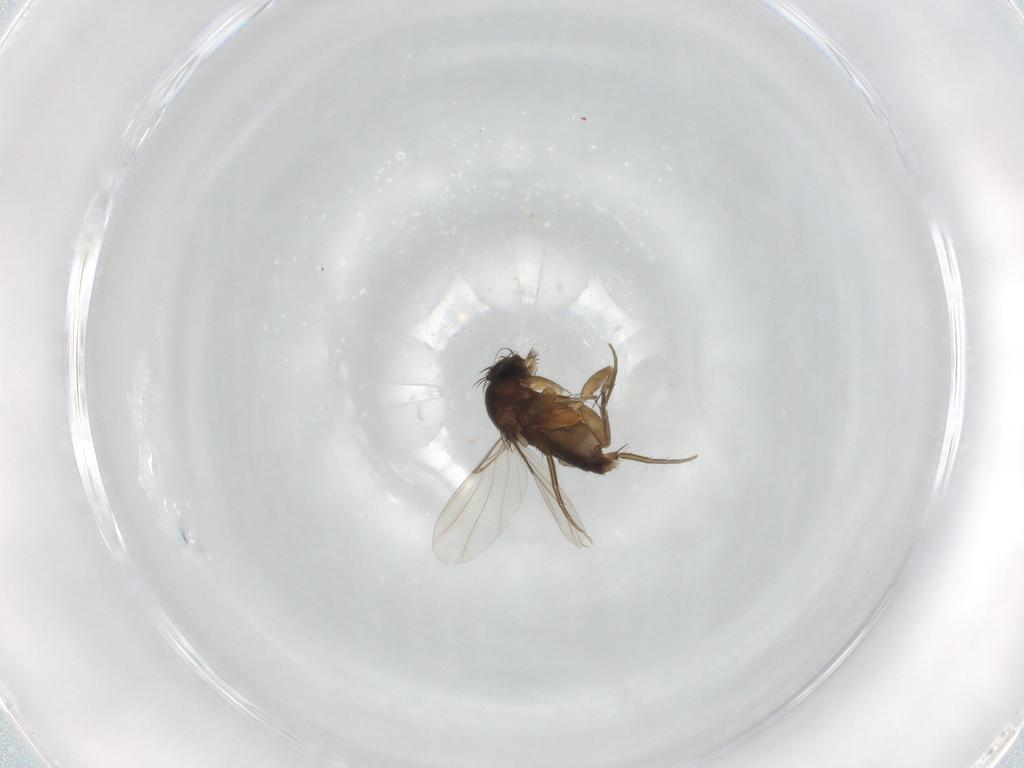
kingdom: Animalia
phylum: Arthropoda
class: Insecta
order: Diptera
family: Phoridae
